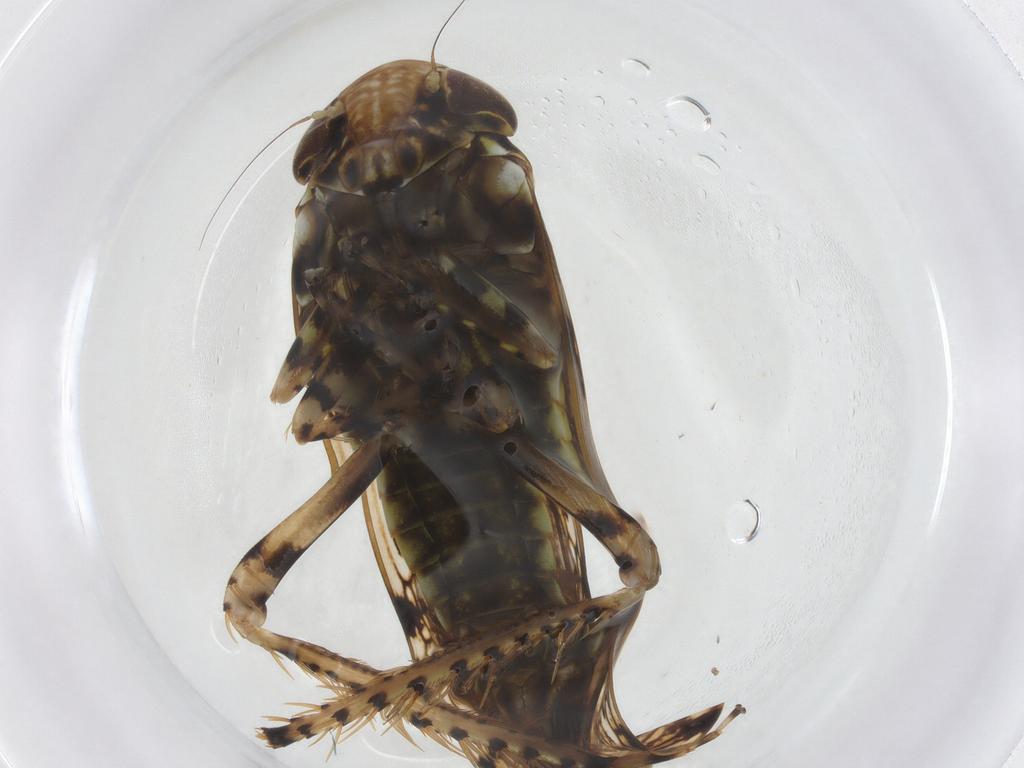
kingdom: Animalia
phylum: Arthropoda
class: Insecta
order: Hemiptera
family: Cicadellidae
